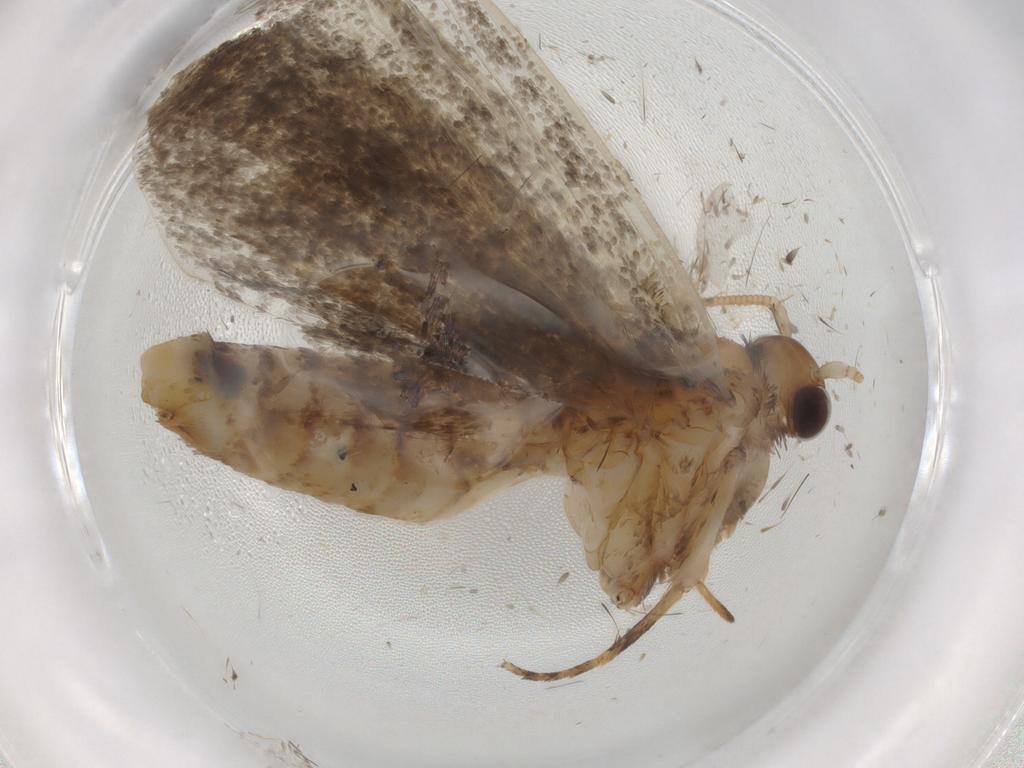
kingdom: Animalia
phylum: Arthropoda
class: Insecta
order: Lepidoptera
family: Tineidae
